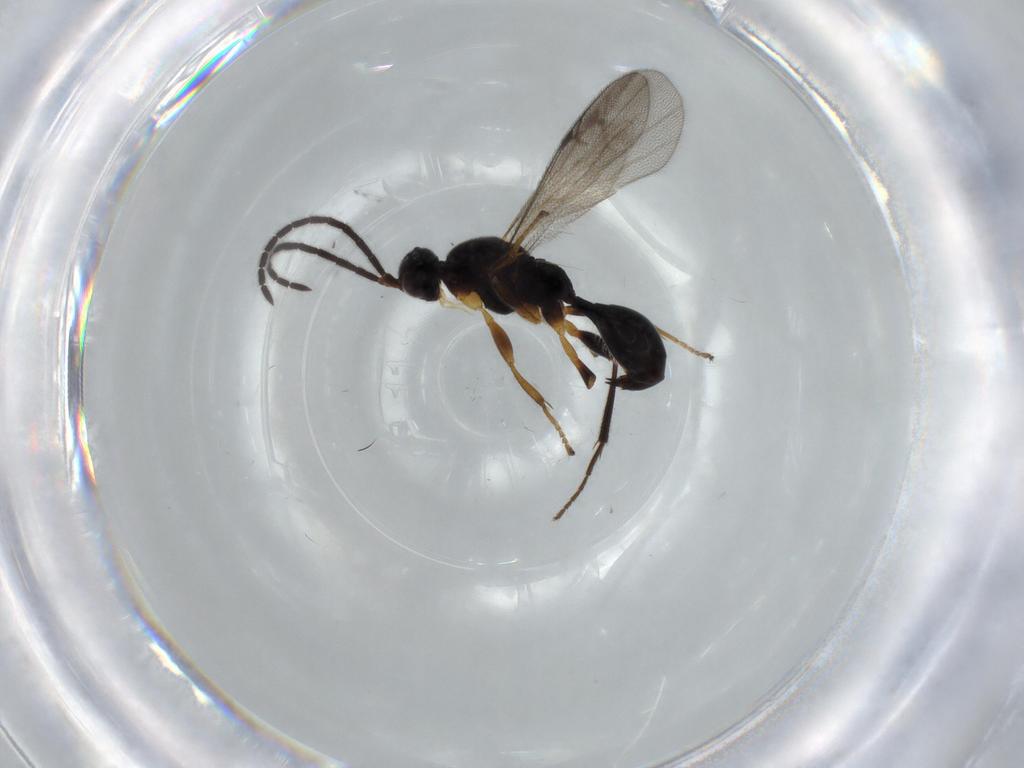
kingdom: Animalia
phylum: Arthropoda
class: Insecta
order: Hymenoptera
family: Proctotrupidae
